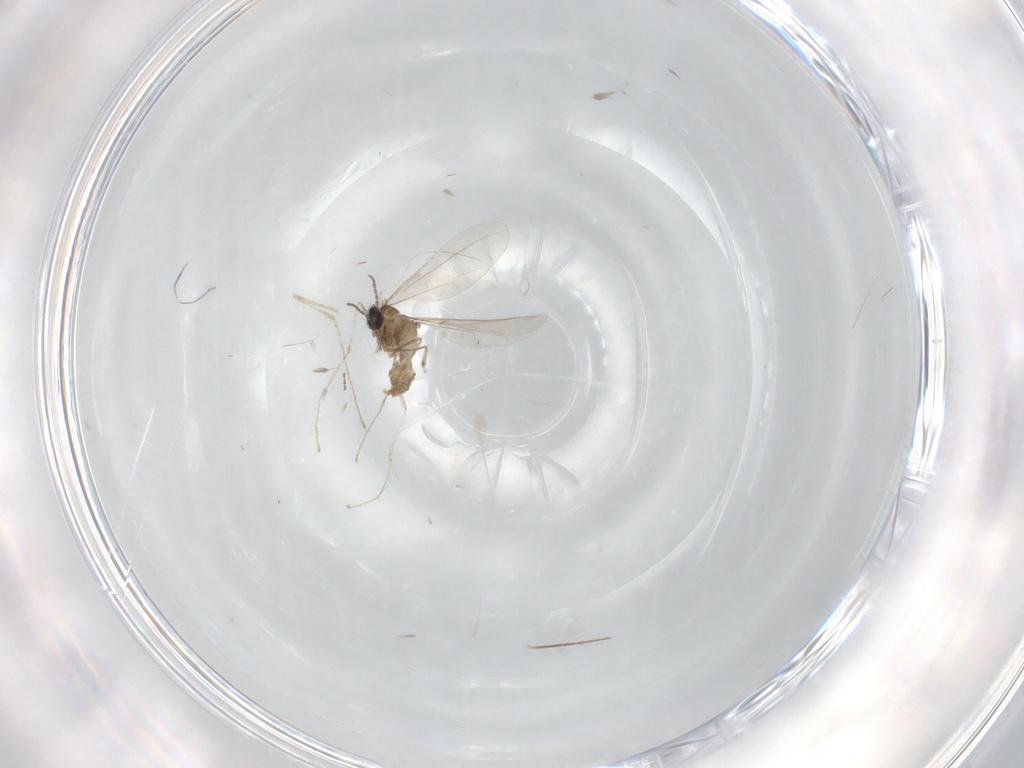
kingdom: Animalia
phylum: Arthropoda
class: Insecta
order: Diptera
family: Cecidomyiidae
